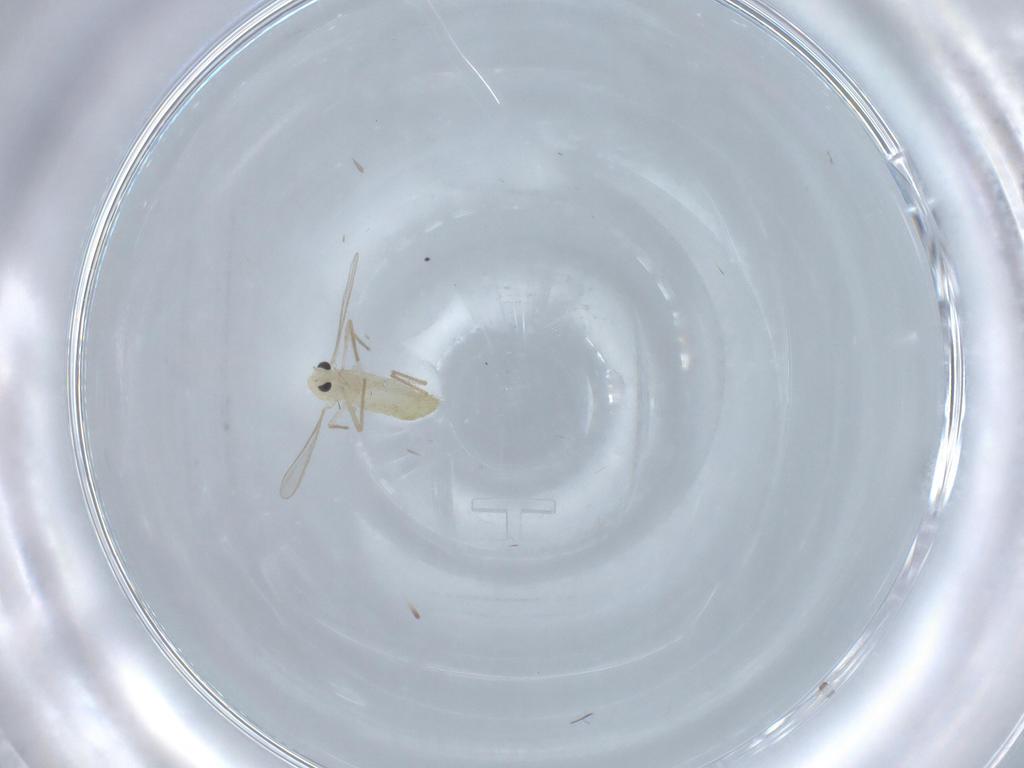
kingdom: Animalia
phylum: Arthropoda
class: Insecta
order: Diptera
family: Chironomidae
